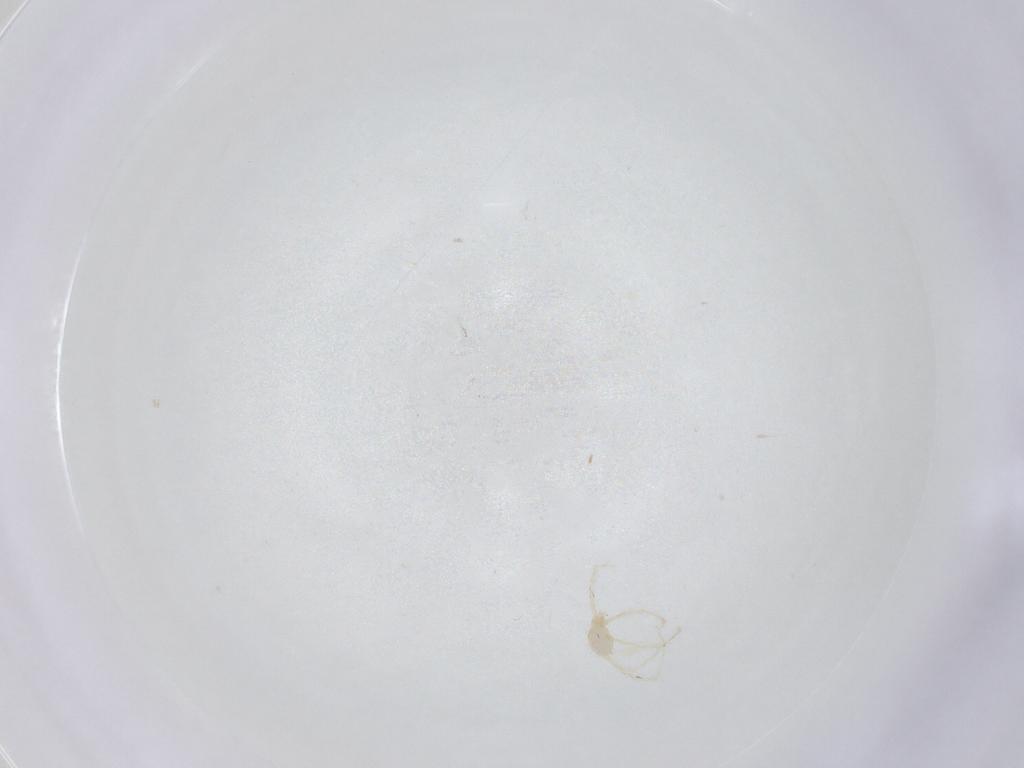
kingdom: Animalia
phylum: Arthropoda
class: Arachnida
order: Trombidiformes
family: Erythraeidae
